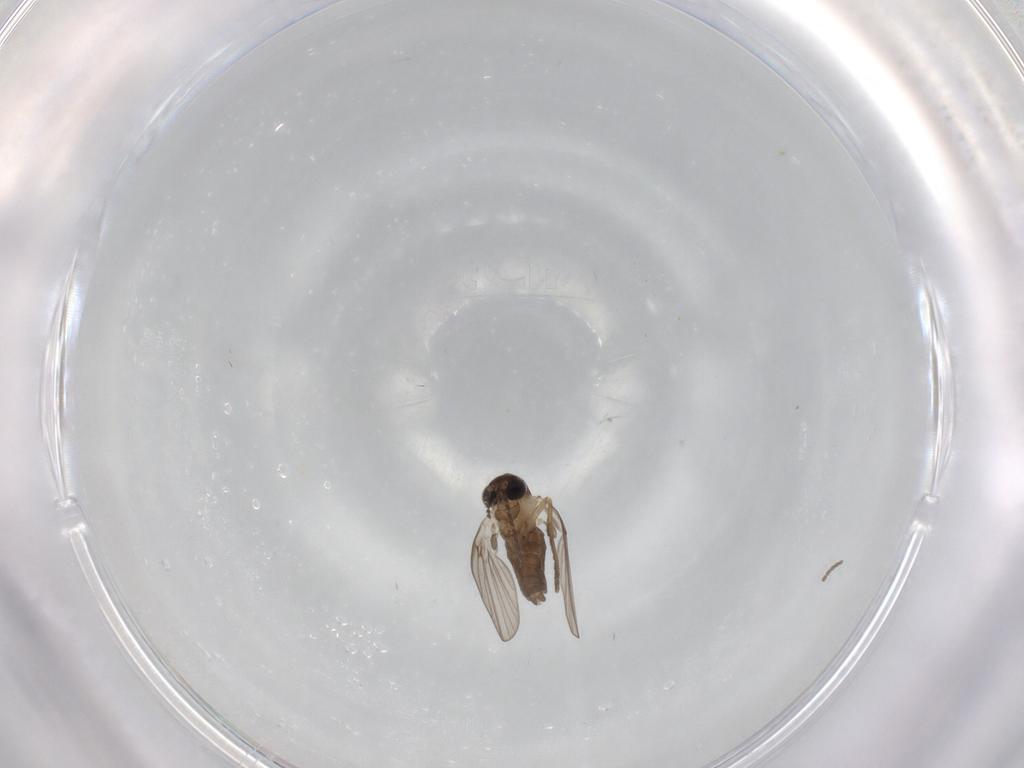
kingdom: Animalia
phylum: Arthropoda
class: Insecta
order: Diptera
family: Cecidomyiidae
